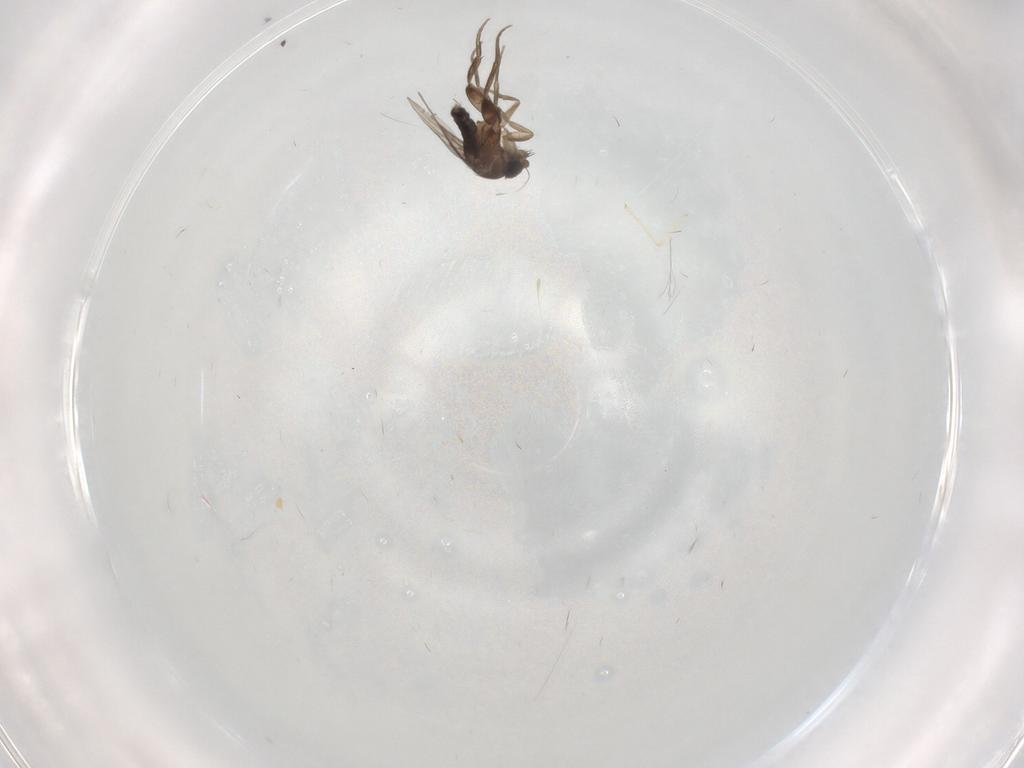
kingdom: Animalia
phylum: Arthropoda
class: Insecta
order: Diptera
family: Phoridae
